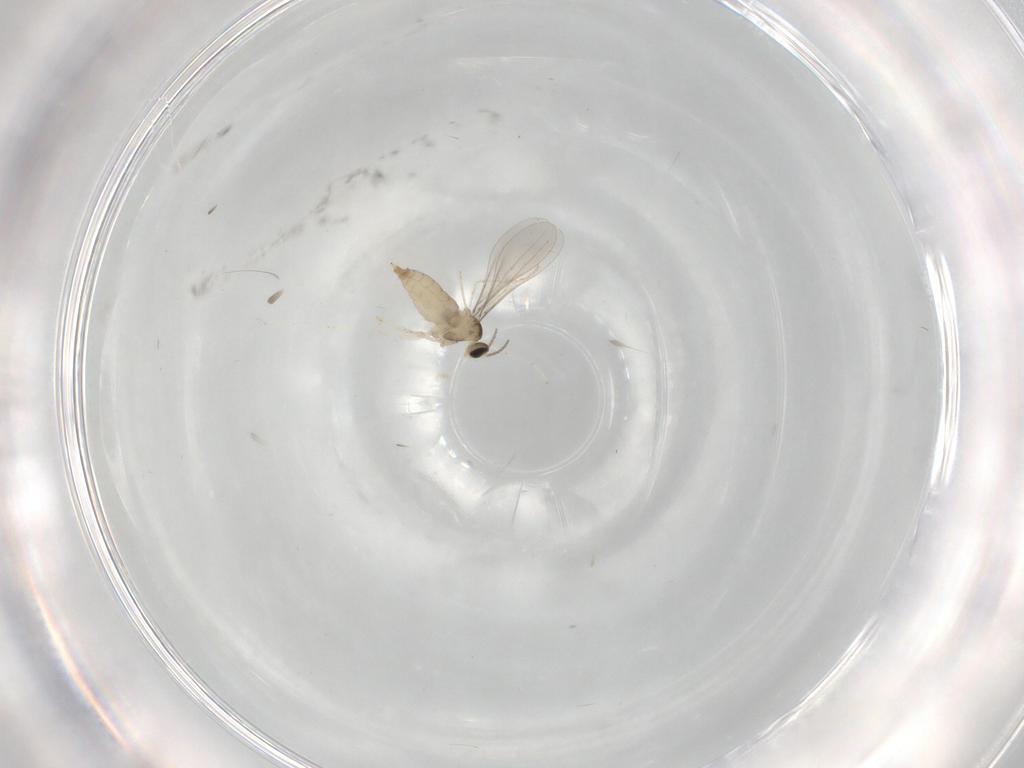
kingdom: Animalia
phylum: Arthropoda
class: Insecta
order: Diptera
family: Cecidomyiidae
